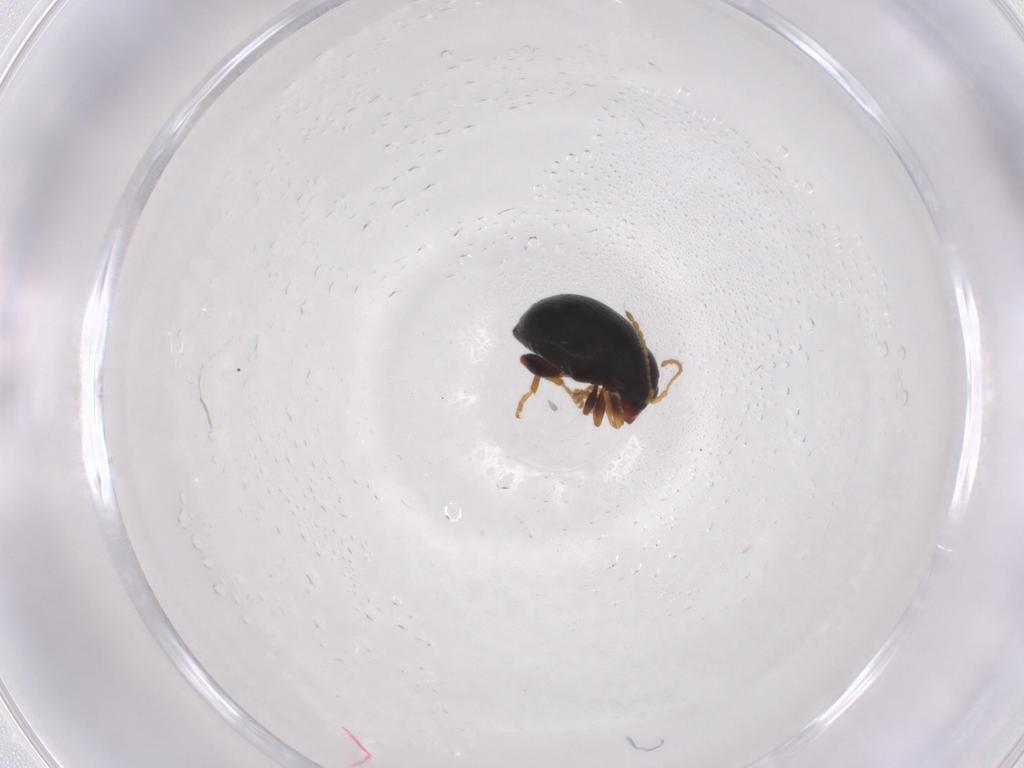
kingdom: Animalia
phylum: Arthropoda
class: Insecta
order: Coleoptera
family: Chrysomelidae
